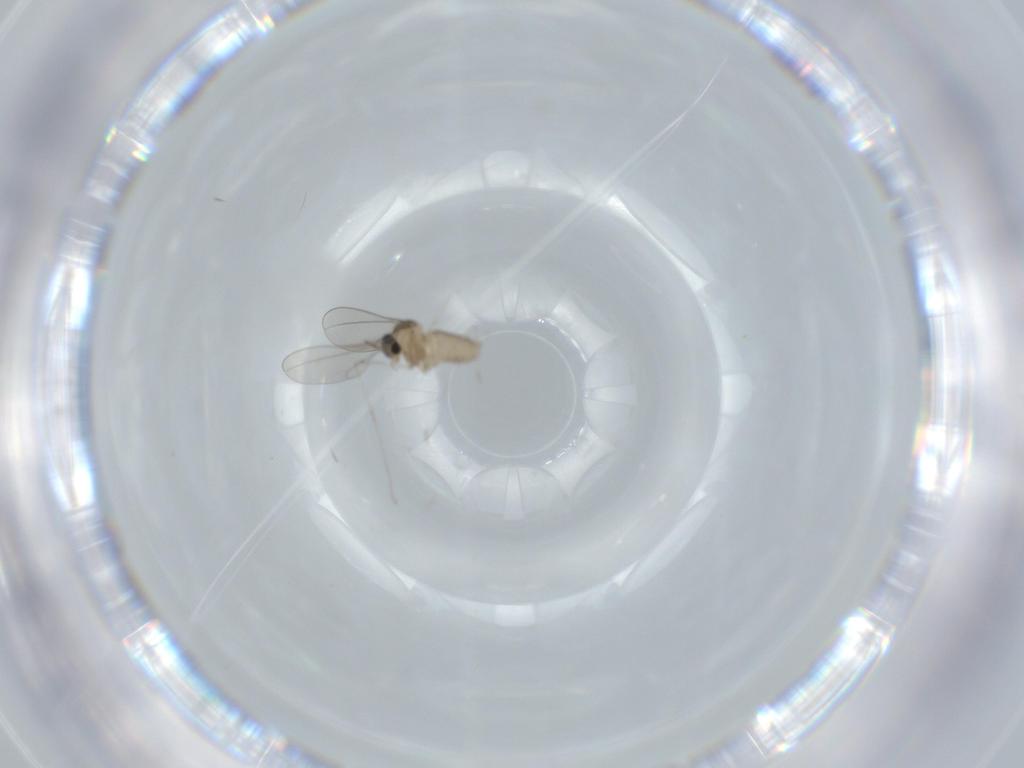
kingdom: Animalia
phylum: Arthropoda
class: Insecta
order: Diptera
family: Cecidomyiidae
